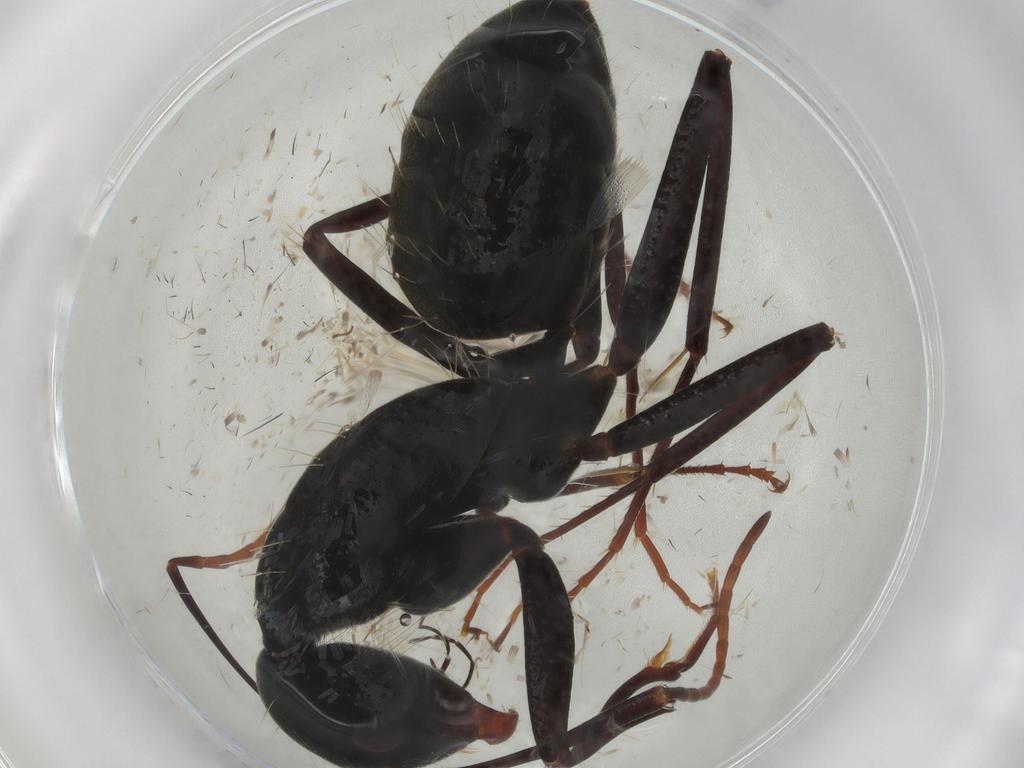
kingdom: Animalia
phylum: Arthropoda
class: Insecta
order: Hymenoptera
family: Formicidae
